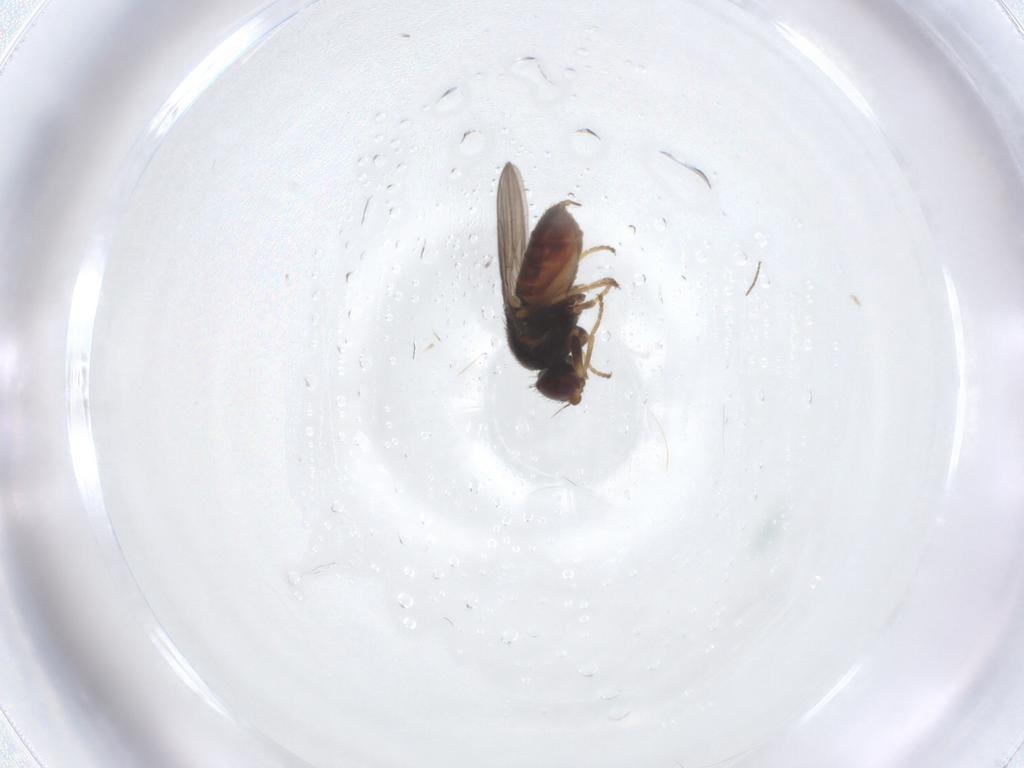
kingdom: Animalia
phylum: Arthropoda
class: Insecta
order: Diptera
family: Chloropidae
